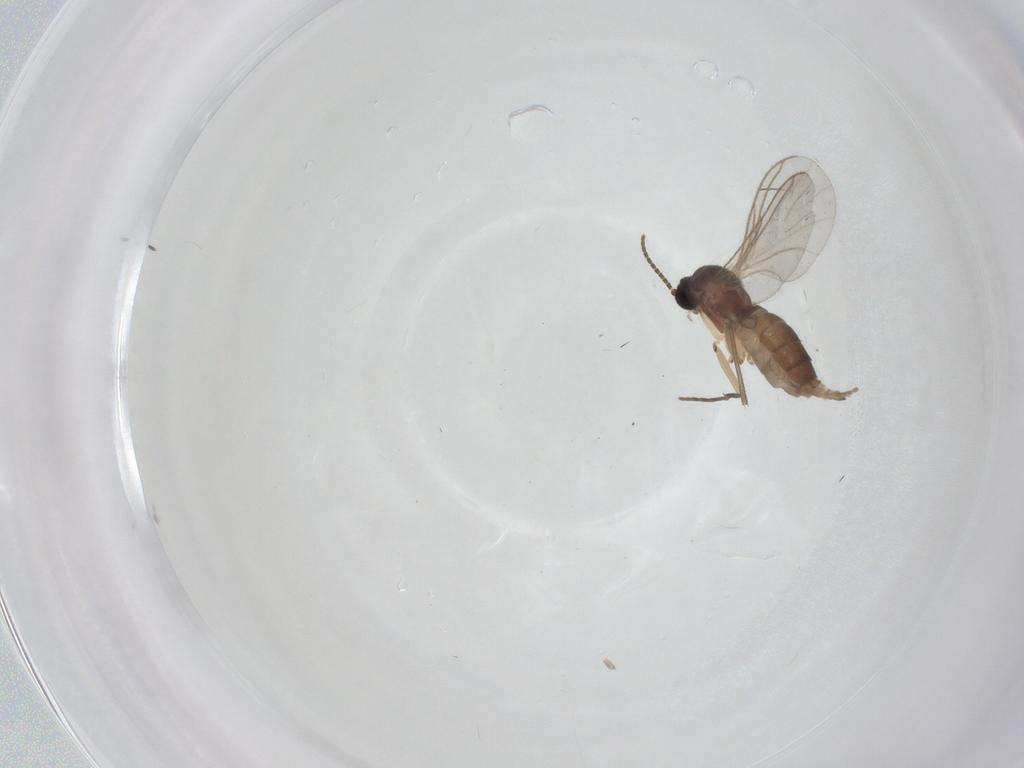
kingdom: Animalia
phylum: Arthropoda
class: Insecta
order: Diptera
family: Sciaridae
